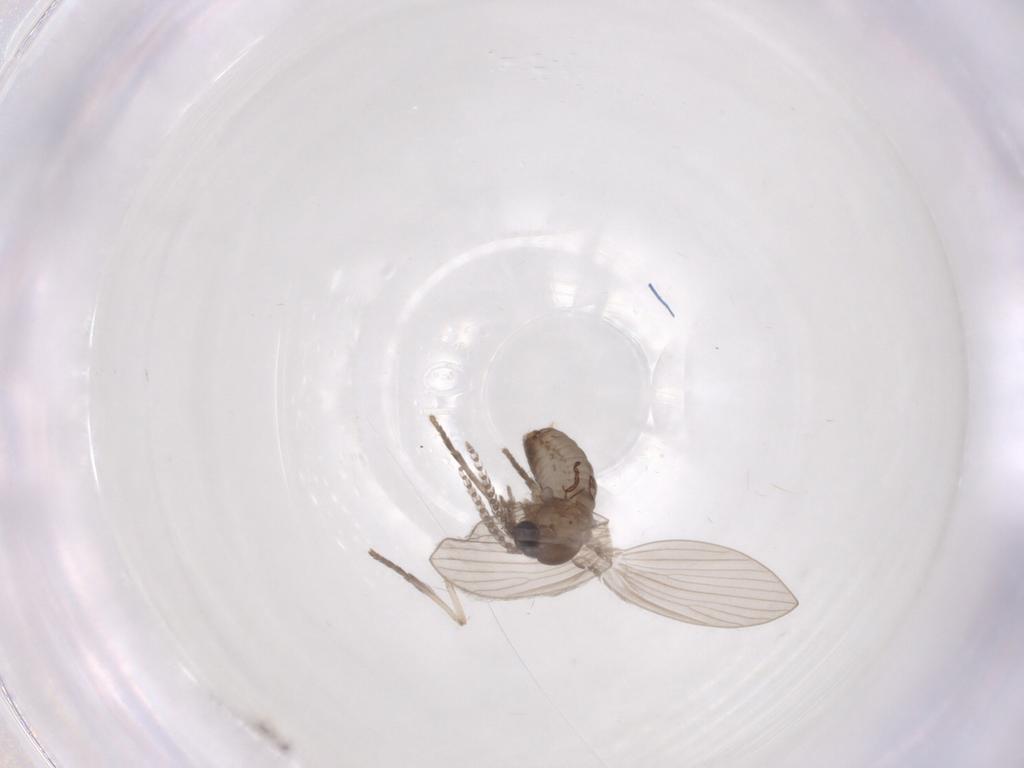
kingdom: Animalia
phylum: Arthropoda
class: Insecta
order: Diptera
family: Psychodidae
